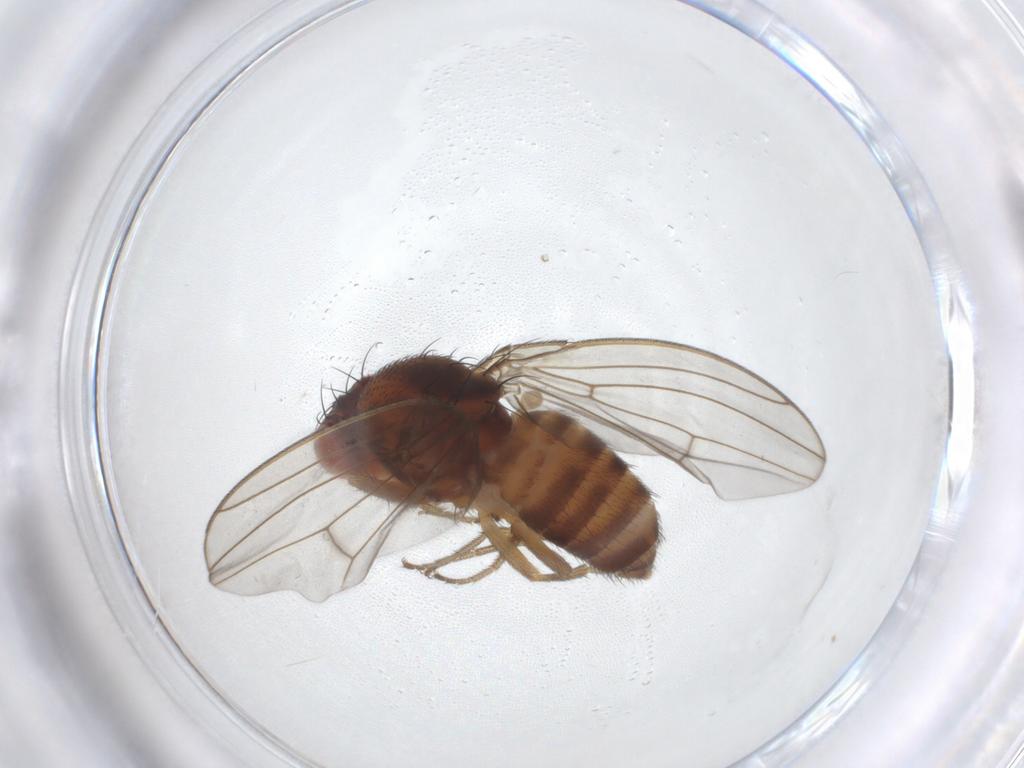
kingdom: Animalia
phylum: Arthropoda
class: Insecta
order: Diptera
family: Drosophilidae
